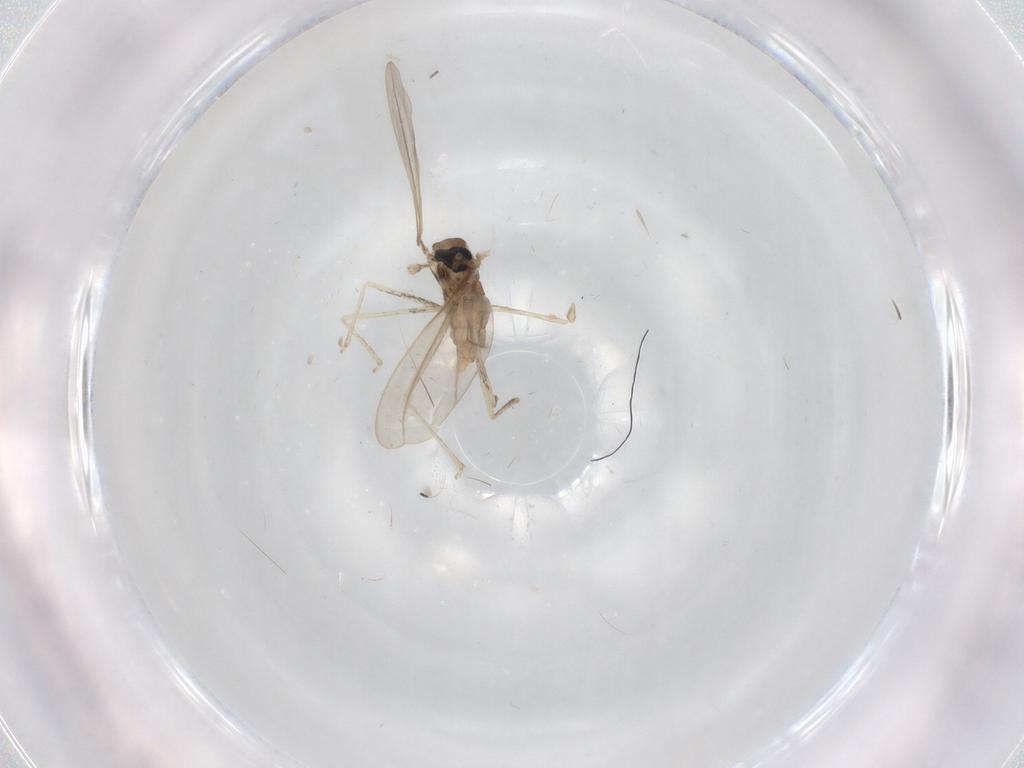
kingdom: Animalia
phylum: Arthropoda
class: Insecta
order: Diptera
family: Cecidomyiidae
